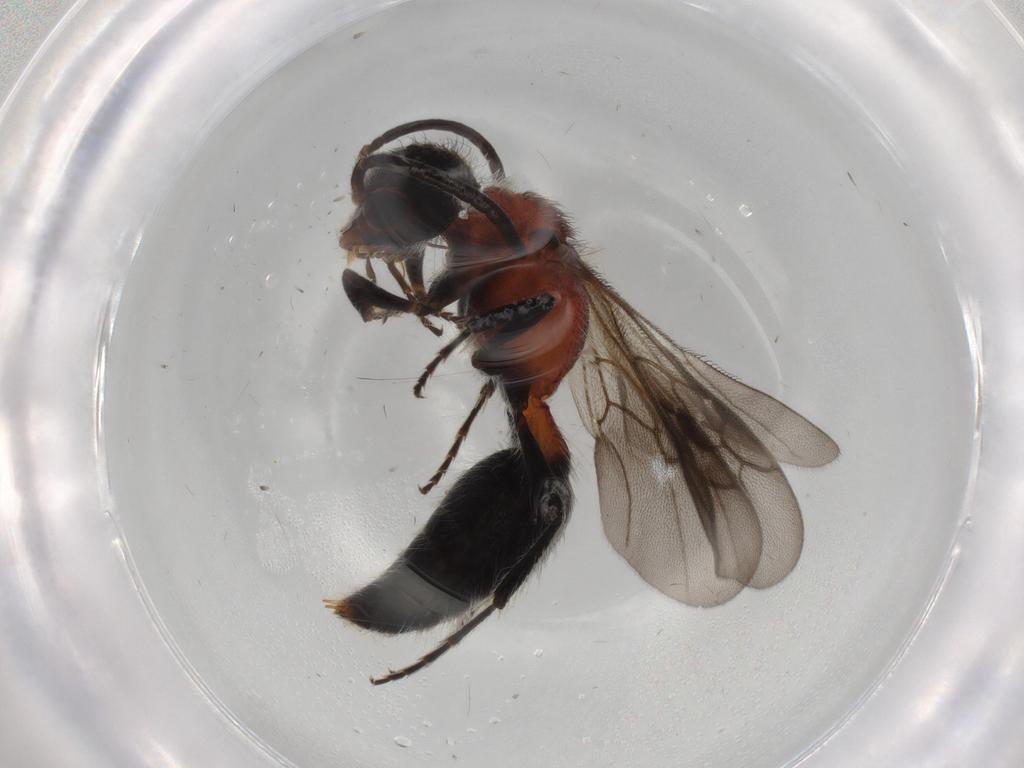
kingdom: Animalia
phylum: Arthropoda
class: Insecta
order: Hymenoptera
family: Mutillidae
